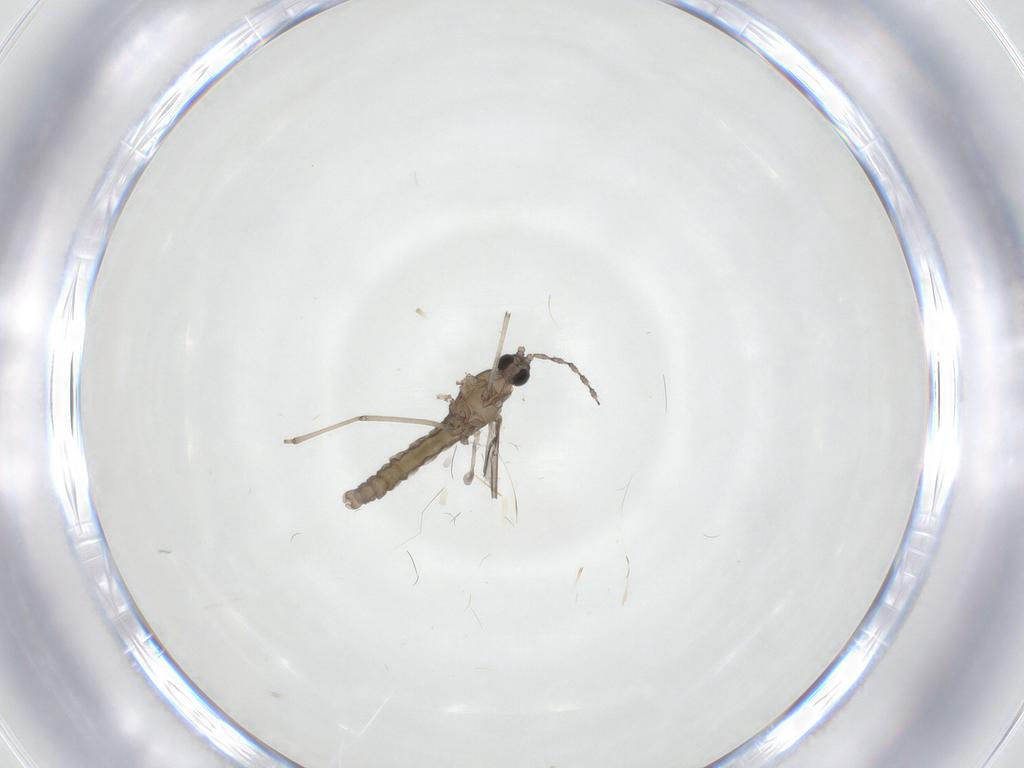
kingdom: Animalia
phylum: Arthropoda
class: Insecta
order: Diptera
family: Cecidomyiidae
